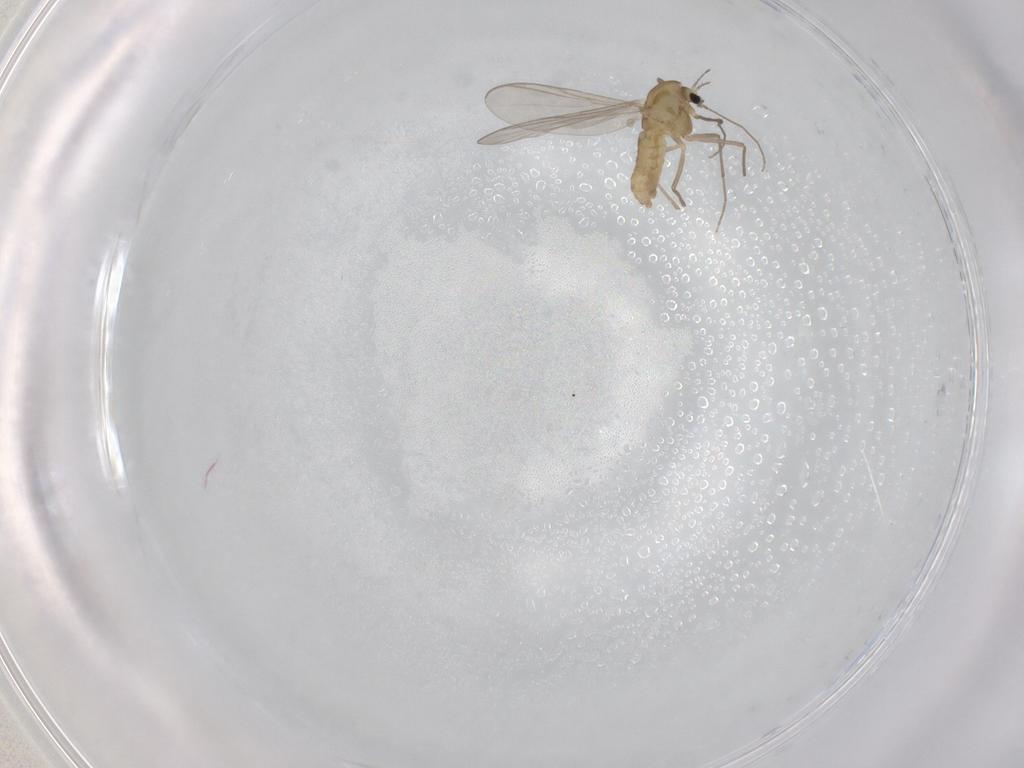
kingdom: Animalia
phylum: Arthropoda
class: Insecta
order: Diptera
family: Chironomidae
